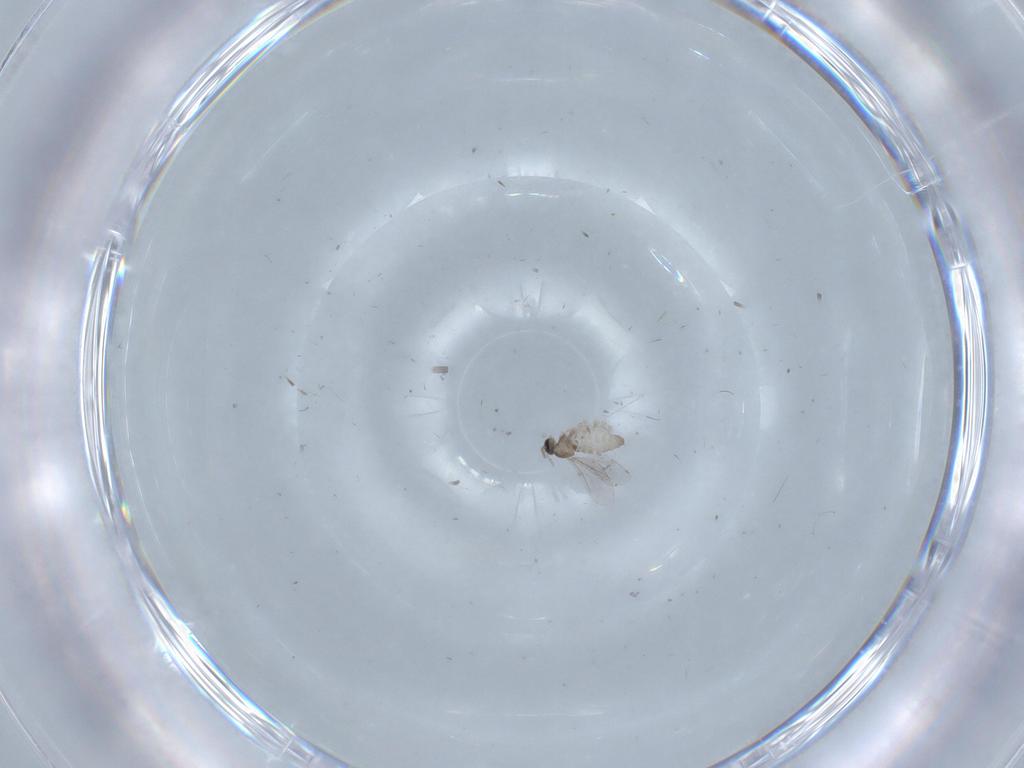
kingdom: Animalia
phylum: Arthropoda
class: Insecta
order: Diptera
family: Cecidomyiidae
